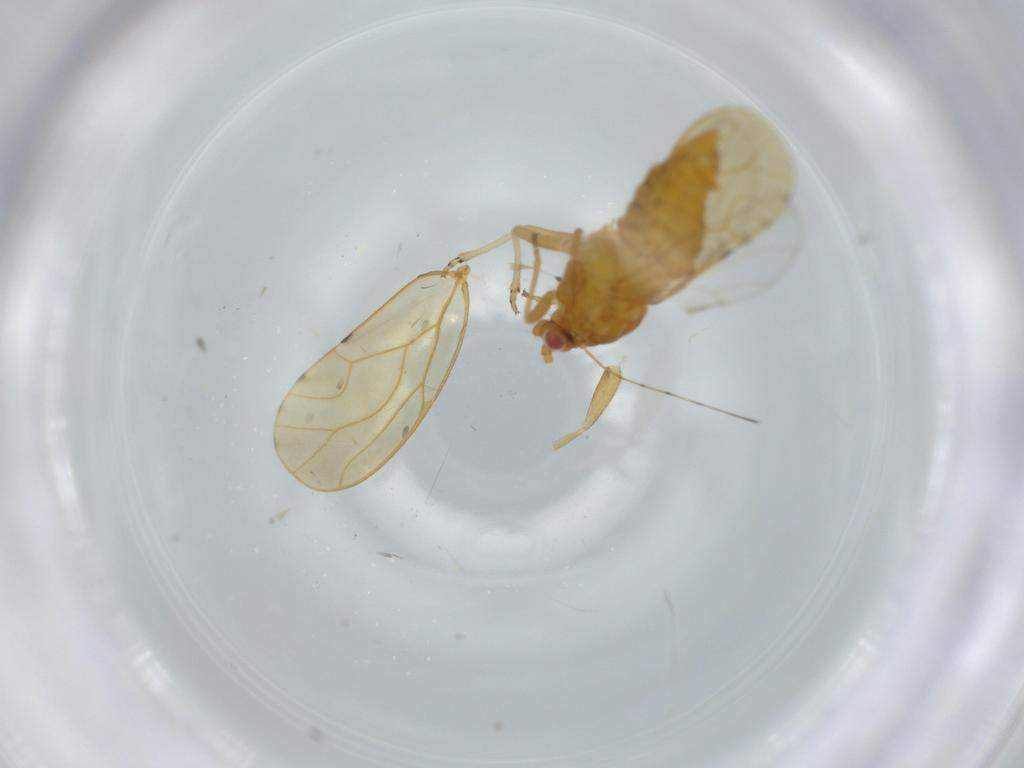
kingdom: Animalia
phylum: Arthropoda
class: Insecta
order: Diptera
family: Dolichopodidae
